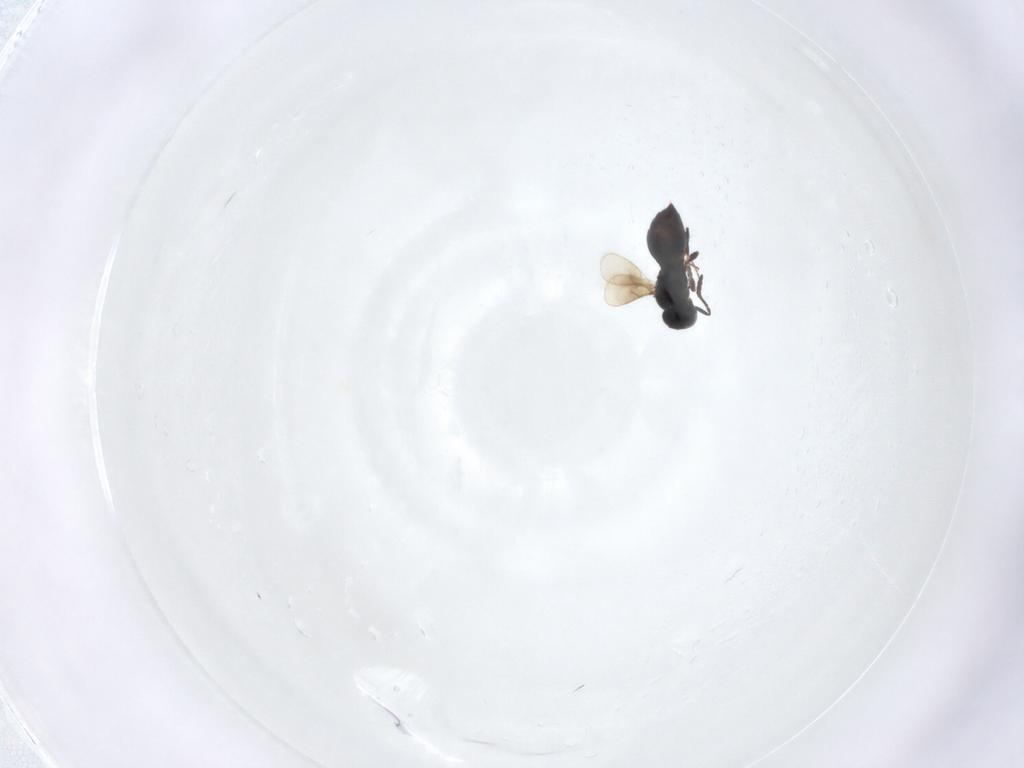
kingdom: Animalia
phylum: Arthropoda
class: Insecta
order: Hymenoptera
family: Scelionidae
